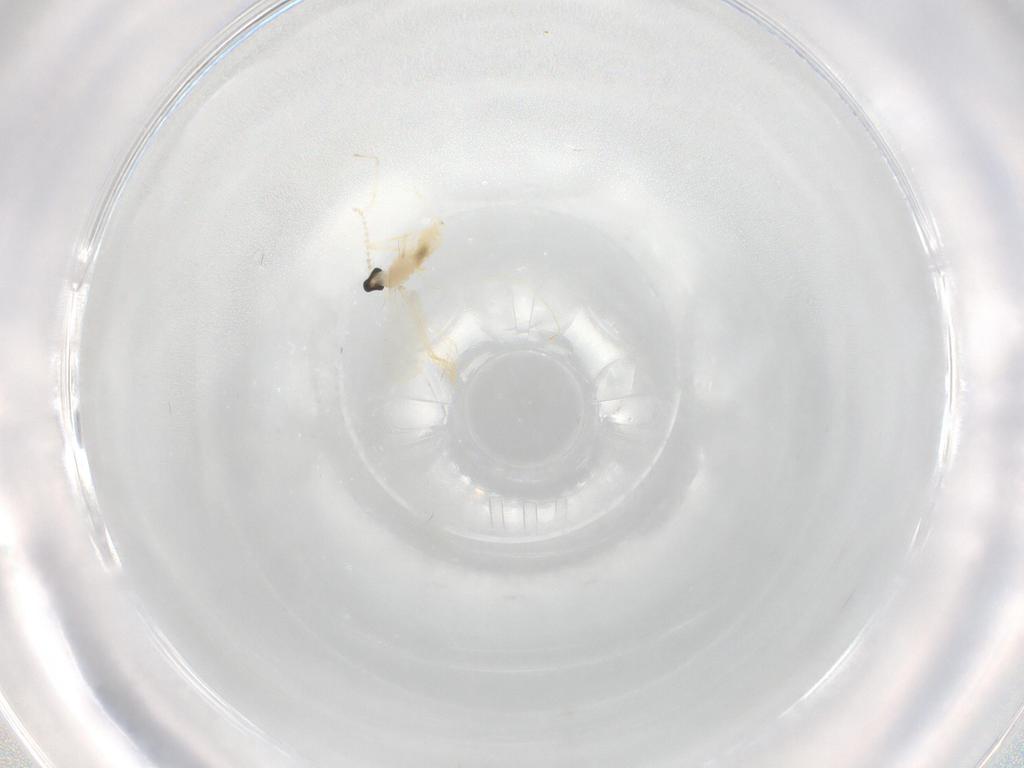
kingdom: Animalia
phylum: Arthropoda
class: Insecta
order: Diptera
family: Cecidomyiidae
